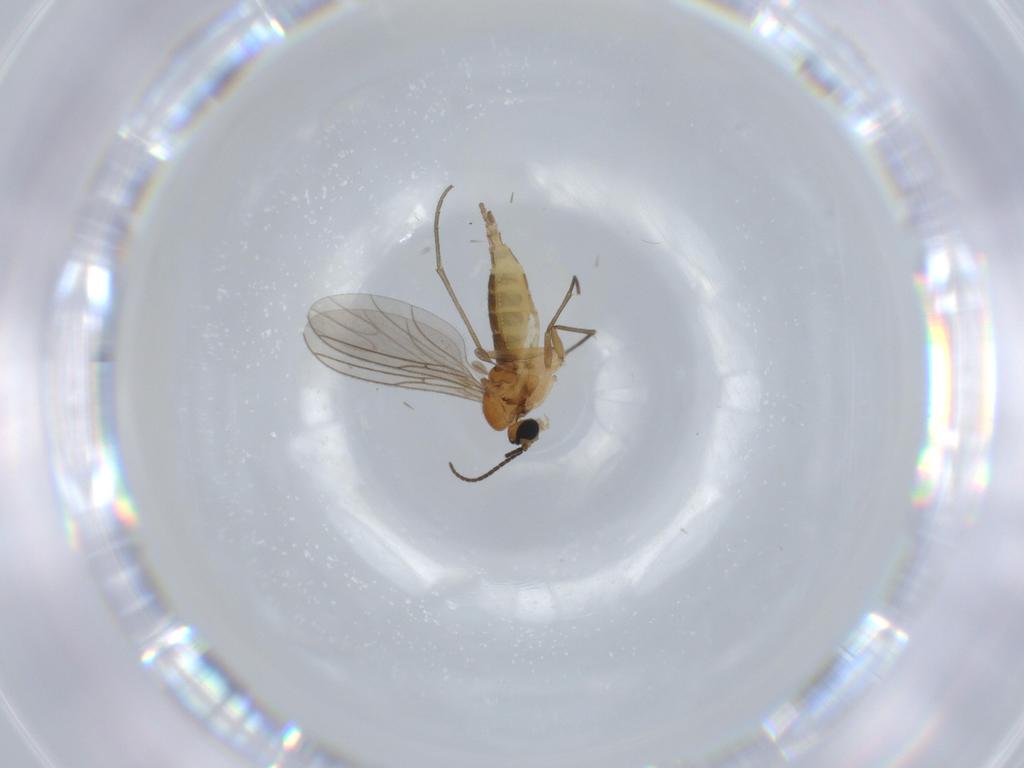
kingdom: Animalia
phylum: Arthropoda
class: Insecta
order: Diptera
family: Sciaridae
